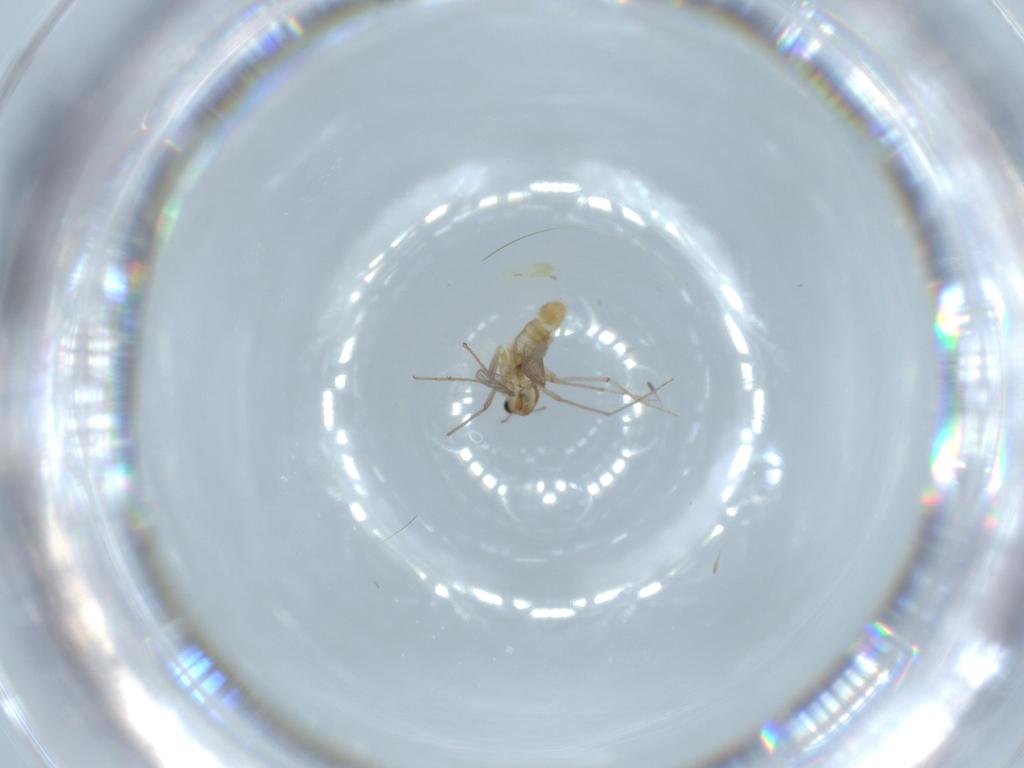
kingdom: Animalia
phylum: Arthropoda
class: Insecta
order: Diptera
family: Chironomidae
